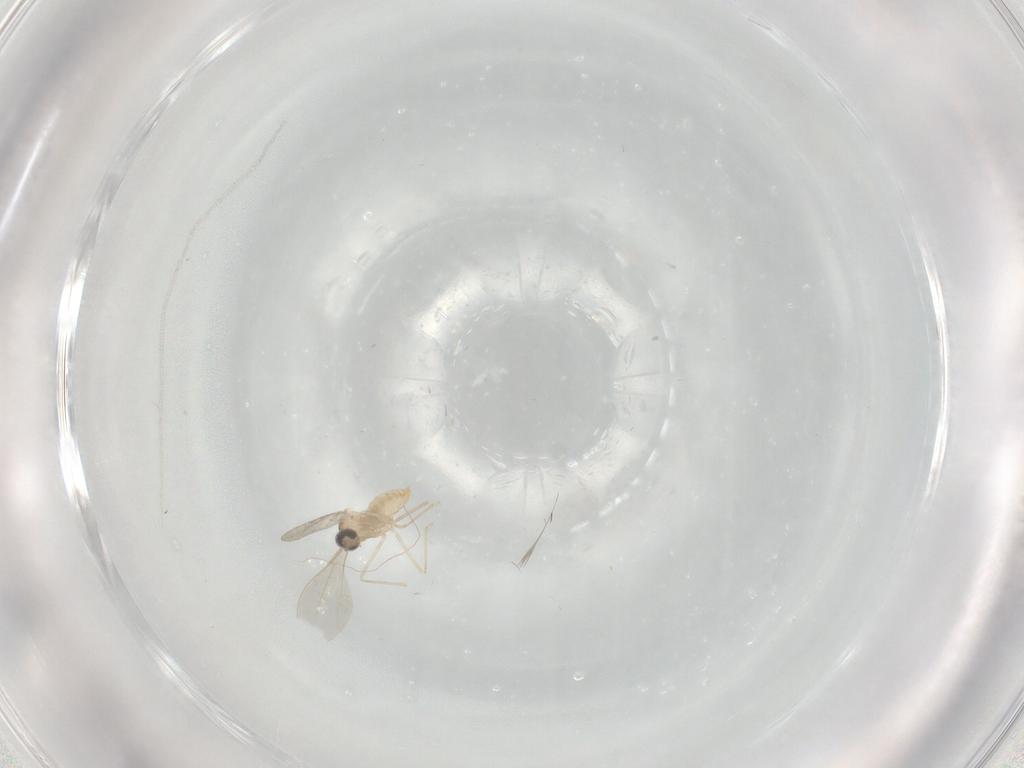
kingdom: Animalia
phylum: Arthropoda
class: Insecta
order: Diptera
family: Cecidomyiidae
